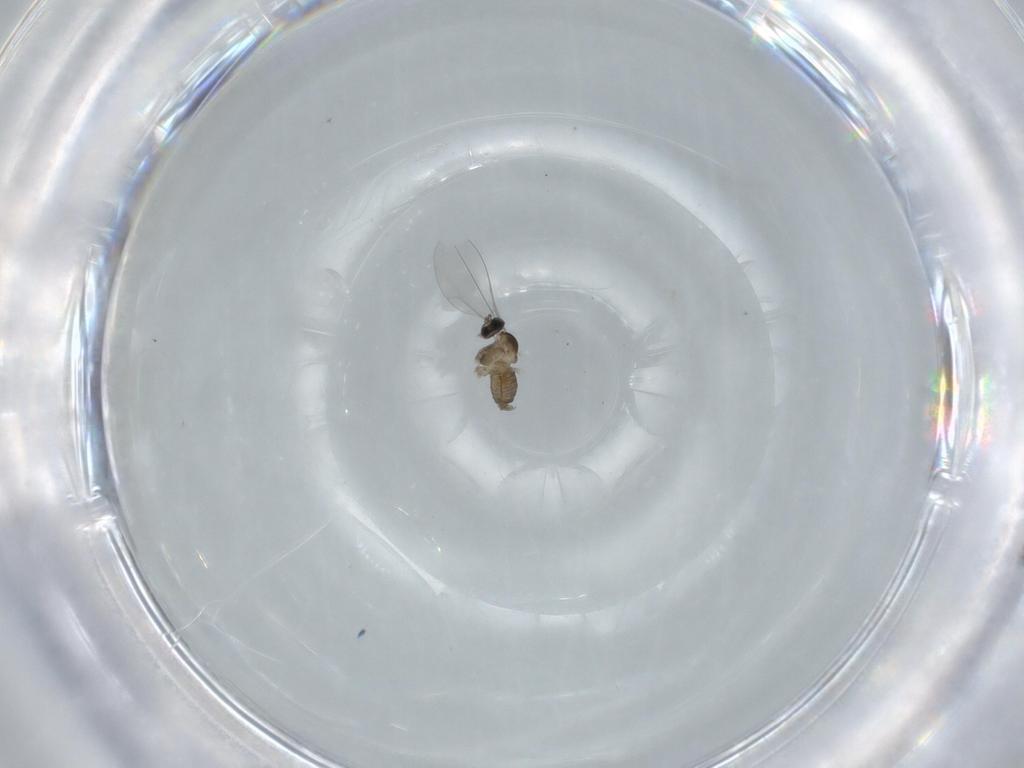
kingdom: Animalia
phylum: Arthropoda
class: Insecta
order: Diptera
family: Cecidomyiidae
